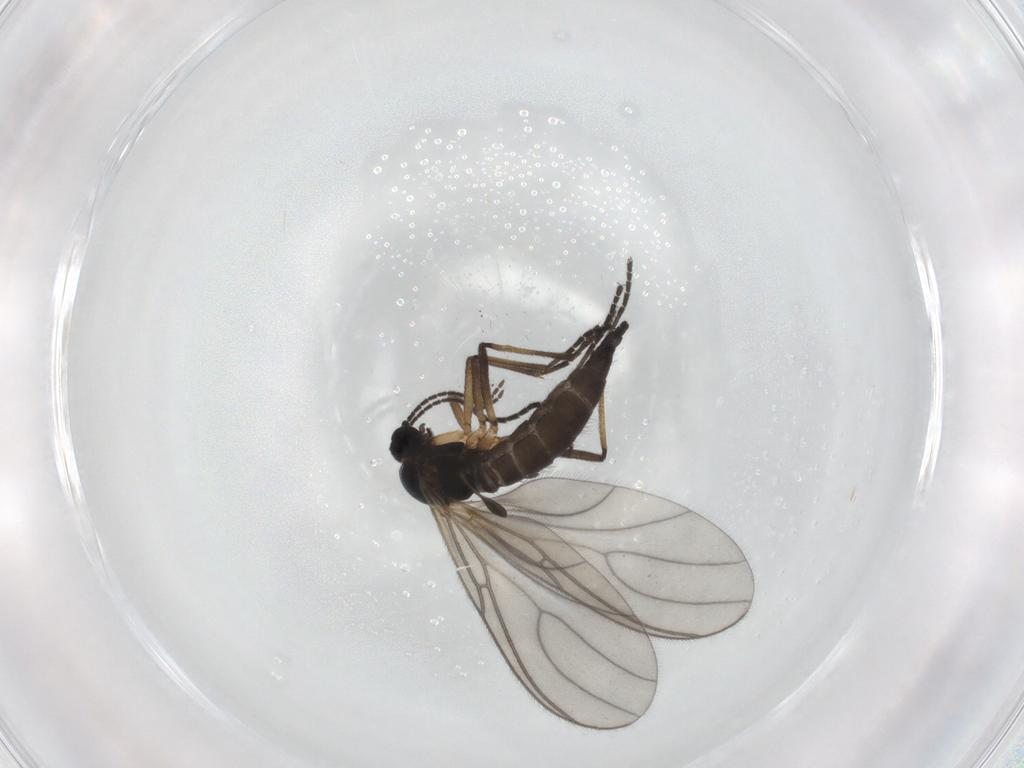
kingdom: Animalia
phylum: Arthropoda
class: Insecta
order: Diptera
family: Sciaridae
